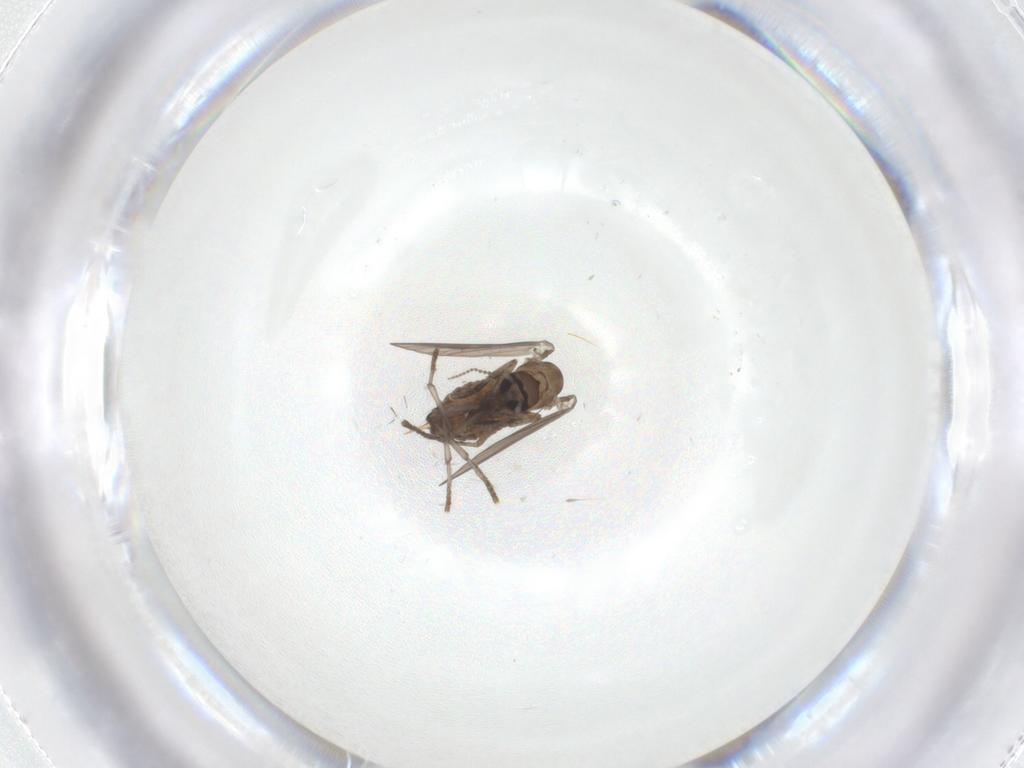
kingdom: Animalia
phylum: Arthropoda
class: Insecta
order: Diptera
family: Psychodidae
